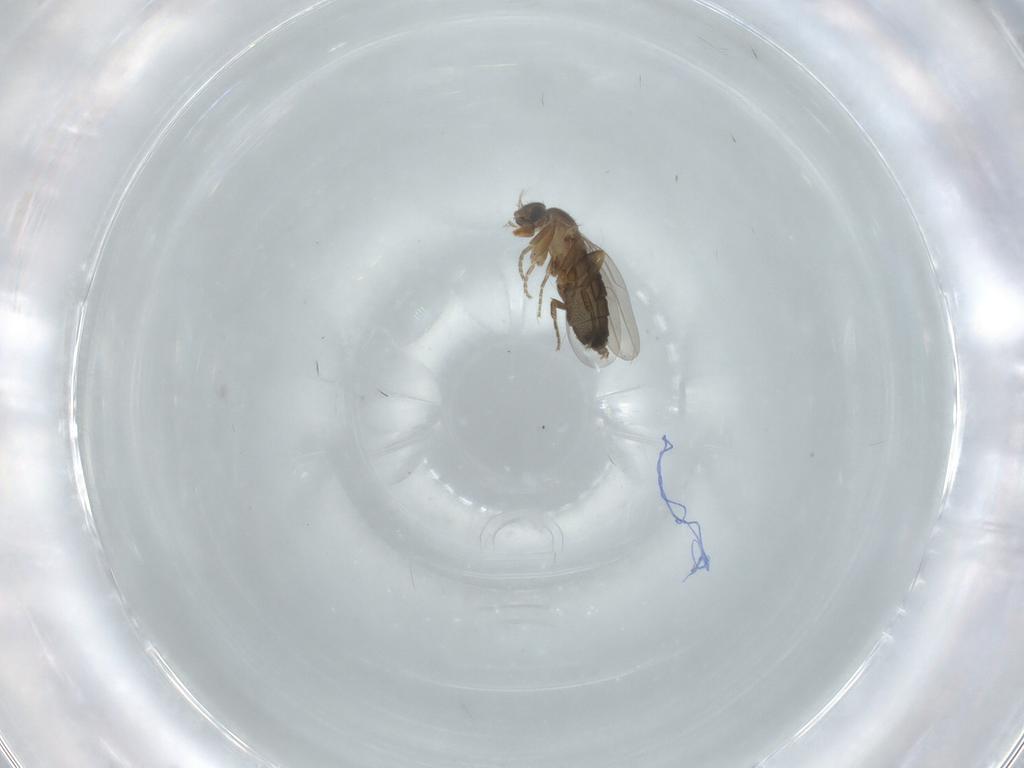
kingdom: Animalia
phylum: Arthropoda
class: Insecta
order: Diptera
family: Phoridae
